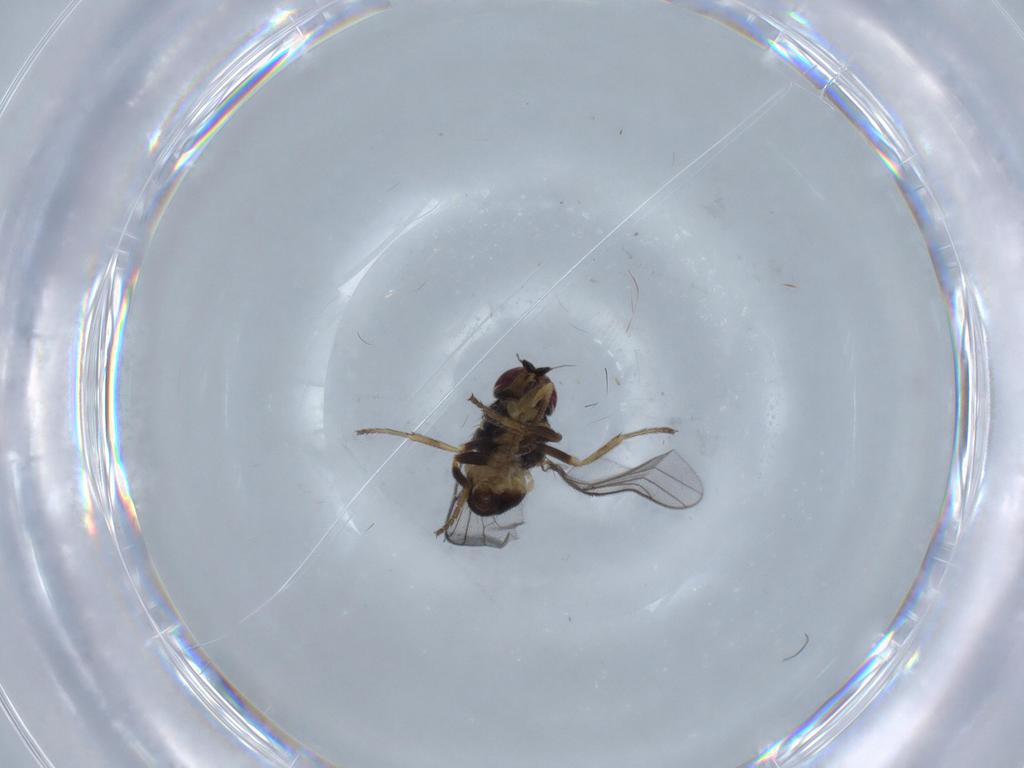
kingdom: Animalia
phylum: Arthropoda
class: Insecta
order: Diptera
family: Chloropidae
